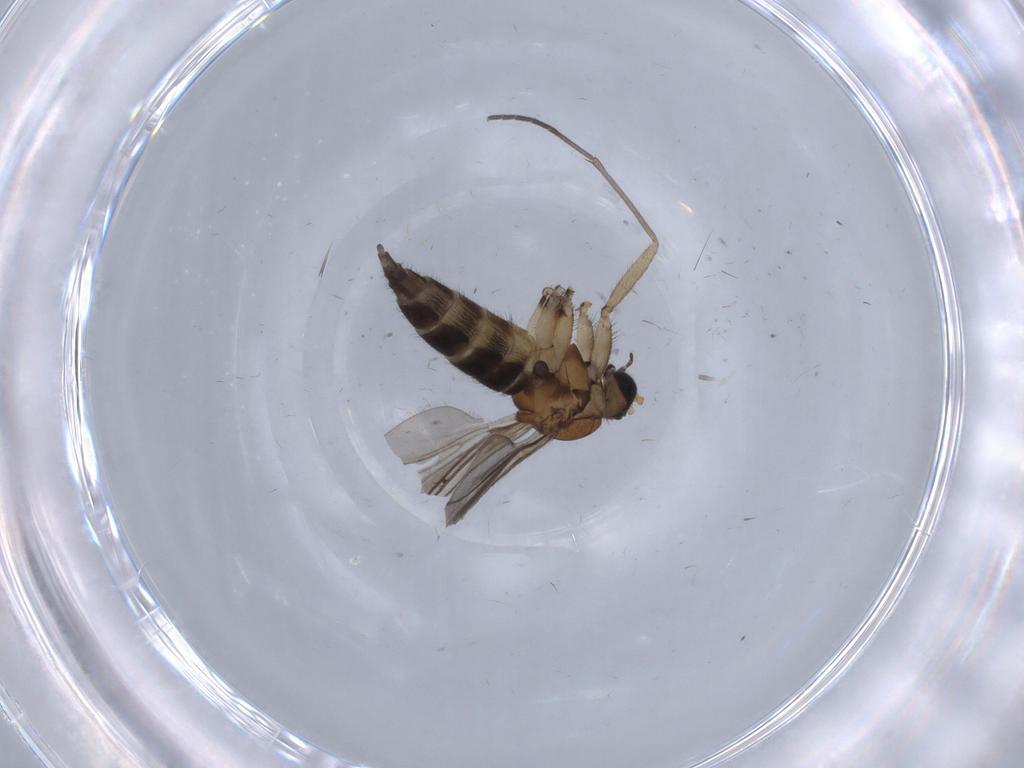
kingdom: Animalia
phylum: Arthropoda
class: Insecta
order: Diptera
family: Sciaridae
